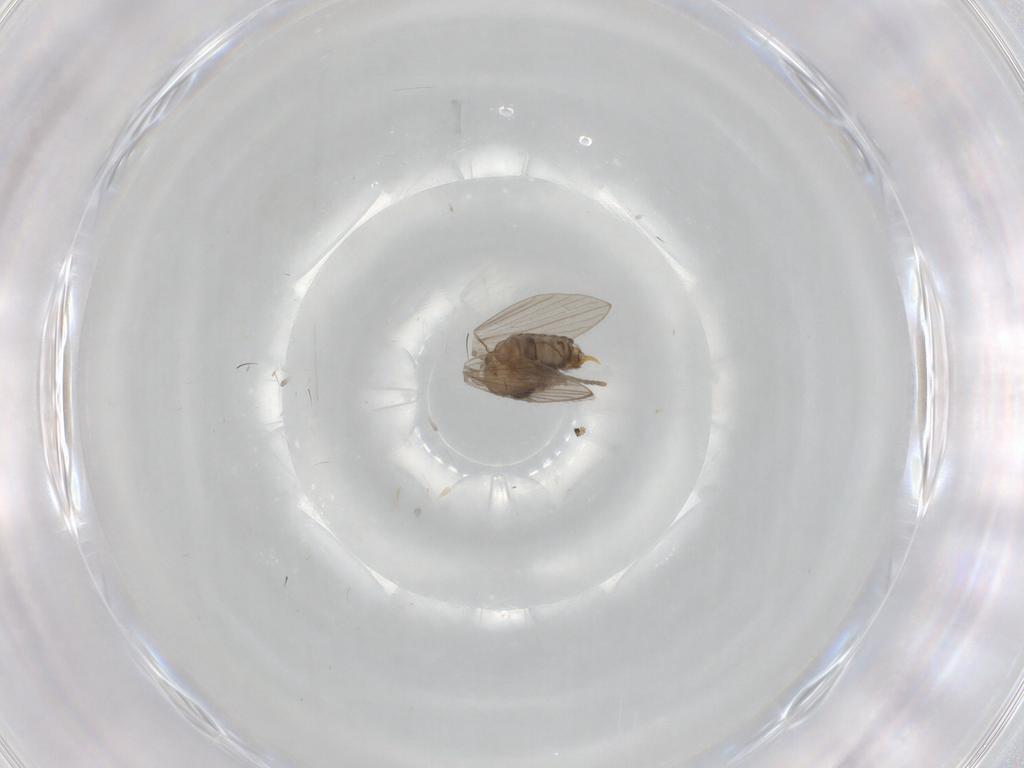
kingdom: Animalia
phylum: Arthropoda
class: Insecta
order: Diptera
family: Psychodidae
